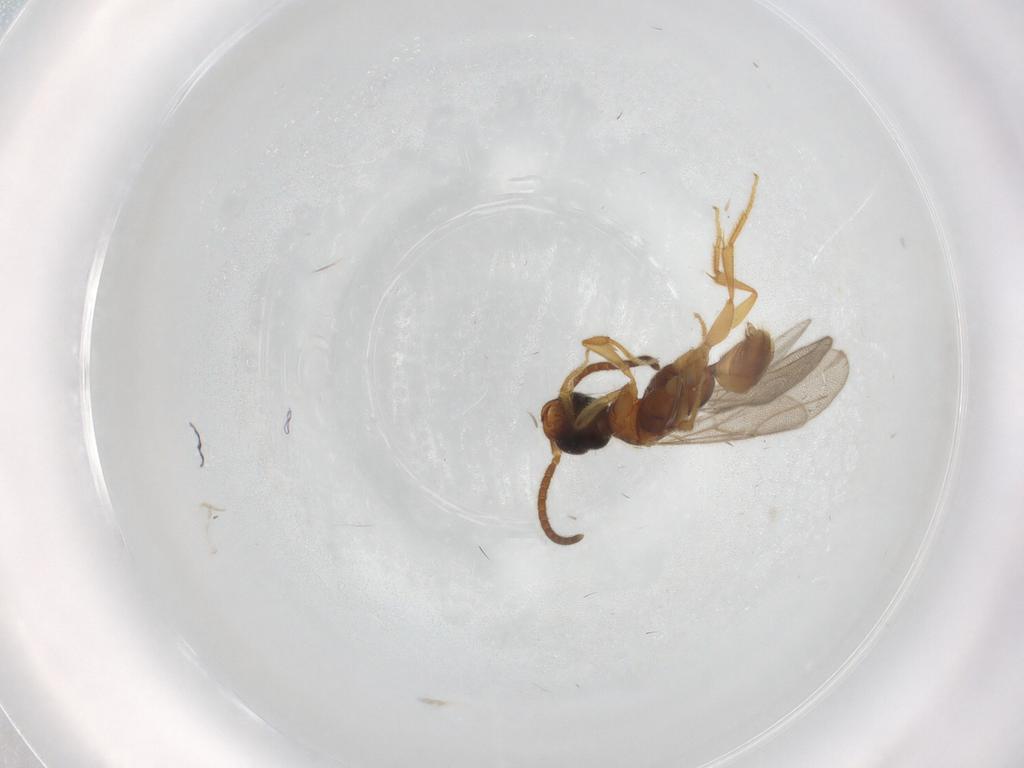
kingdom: Animalia
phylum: Arthropoda
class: Insecta
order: Hymenoptera
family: Bethylidae
